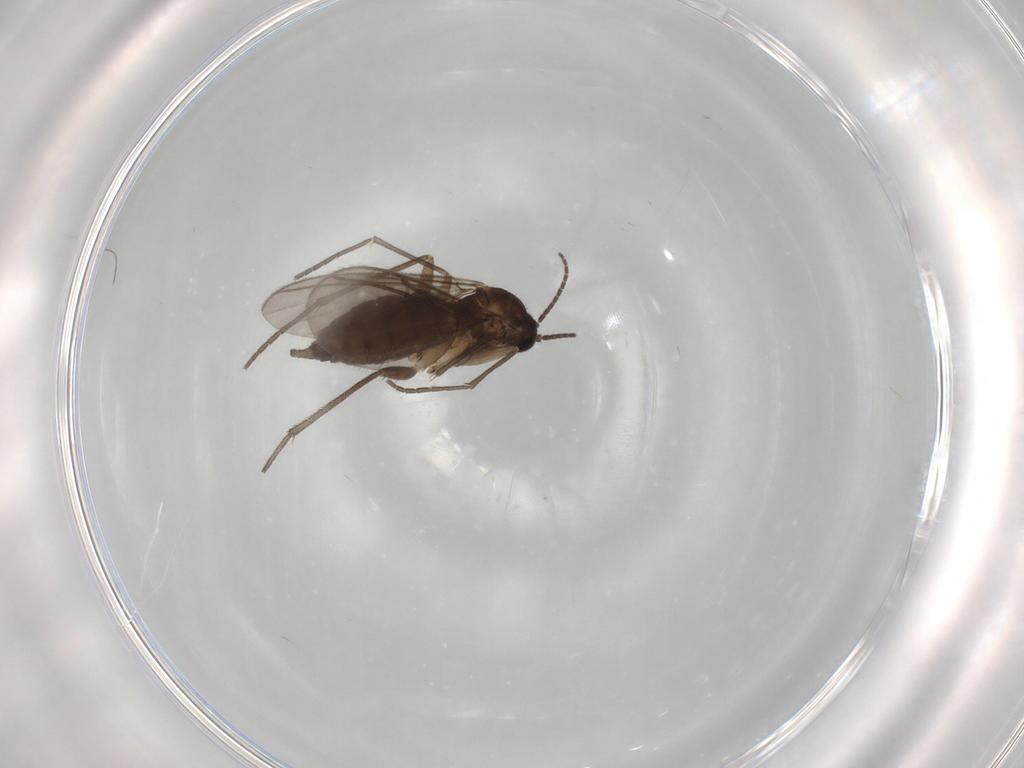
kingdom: Animalia
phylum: Arthropoda
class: Insecta
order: Diptera
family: Sciaridae
